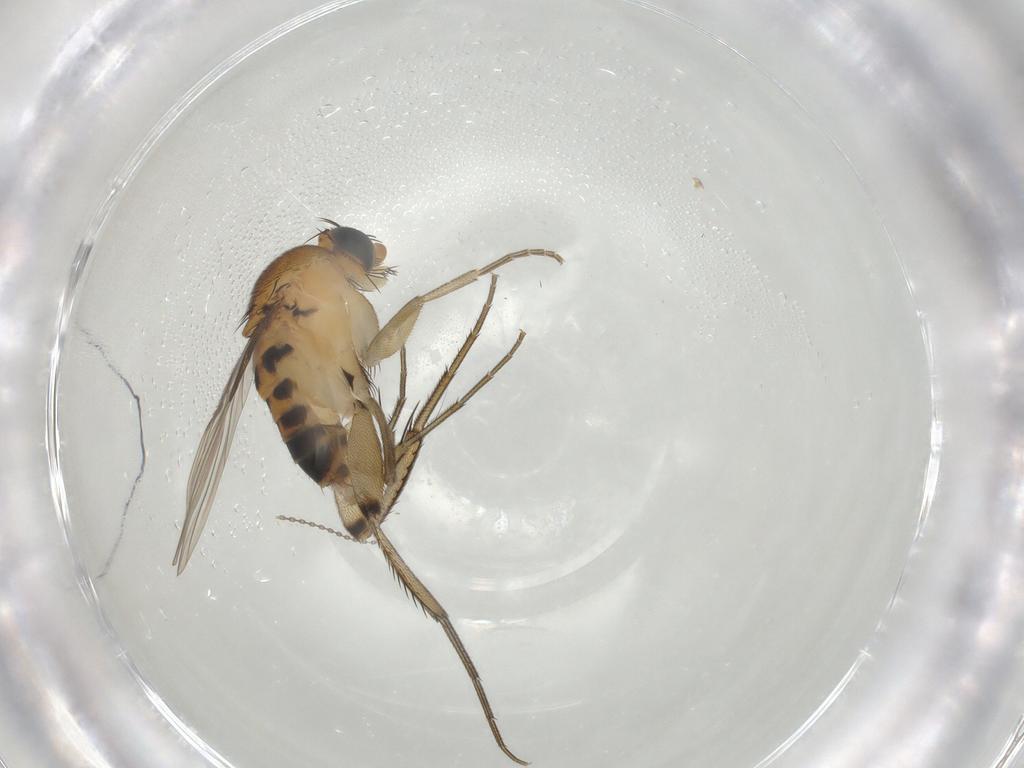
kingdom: Animalia
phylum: Arthropoda
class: Insecta
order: Diptera
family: Phoridae
